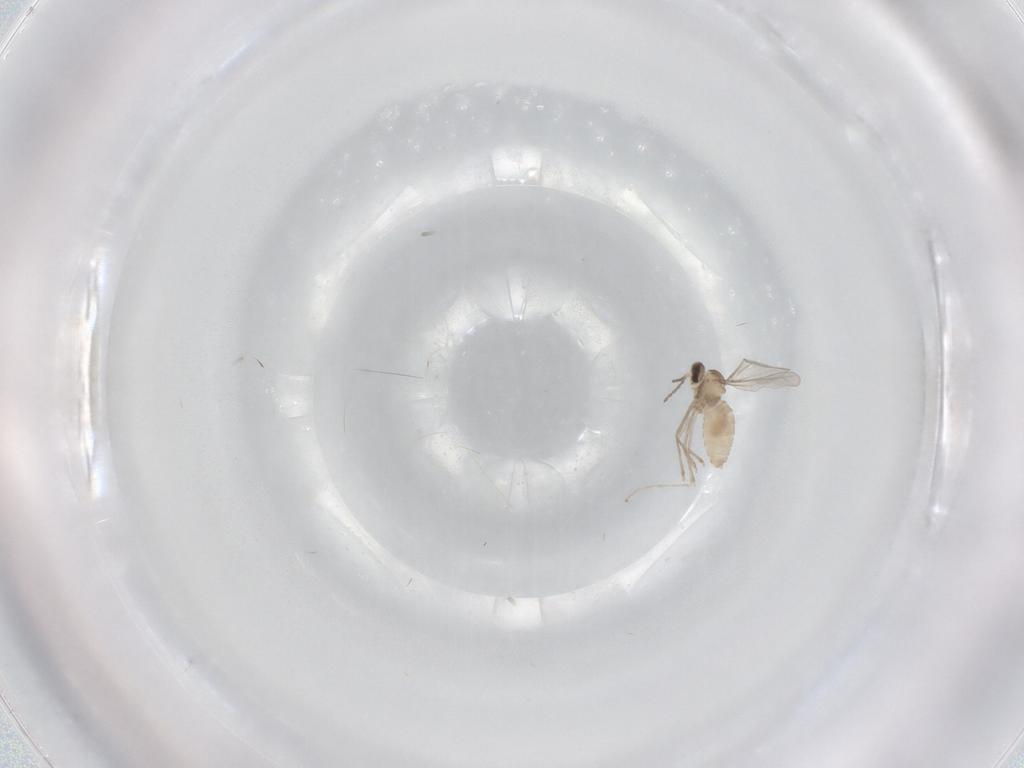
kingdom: Animalia
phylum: Arthropoda
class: Insecta
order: Diptera
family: Cecidomyiidae
